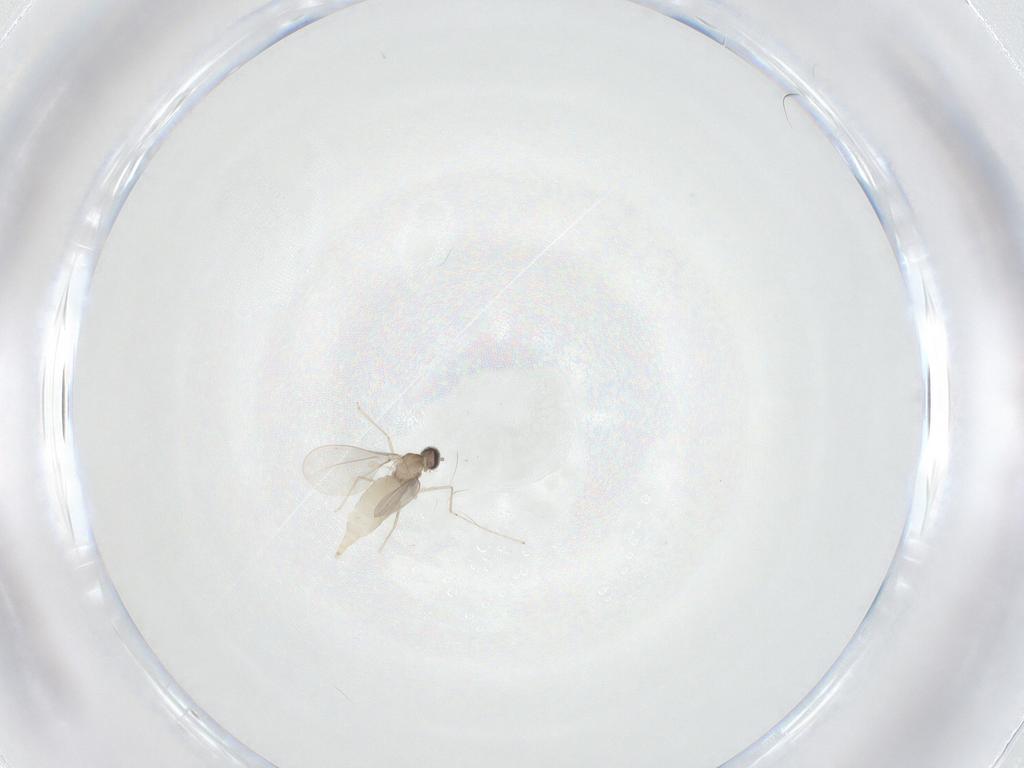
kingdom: Animalia
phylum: Arthropoda
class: Insecta
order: Diptera
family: Cecidomyiidae
